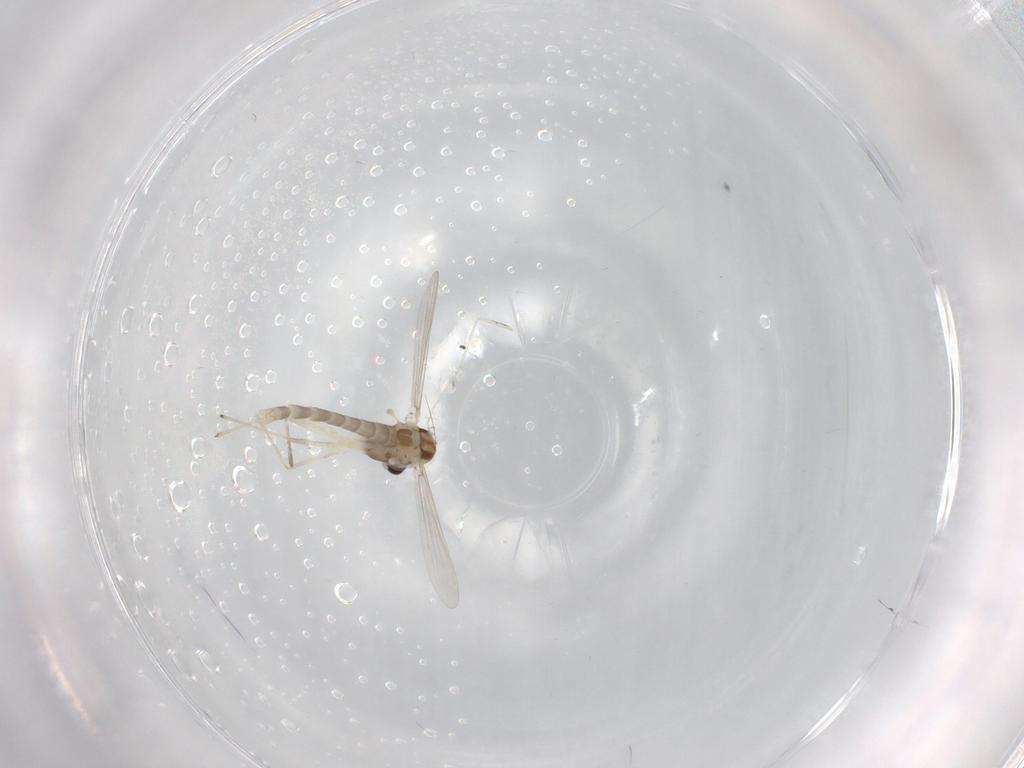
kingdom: Animalia
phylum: Arthropoda
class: Insecta
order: Diptera
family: Chironomidae
